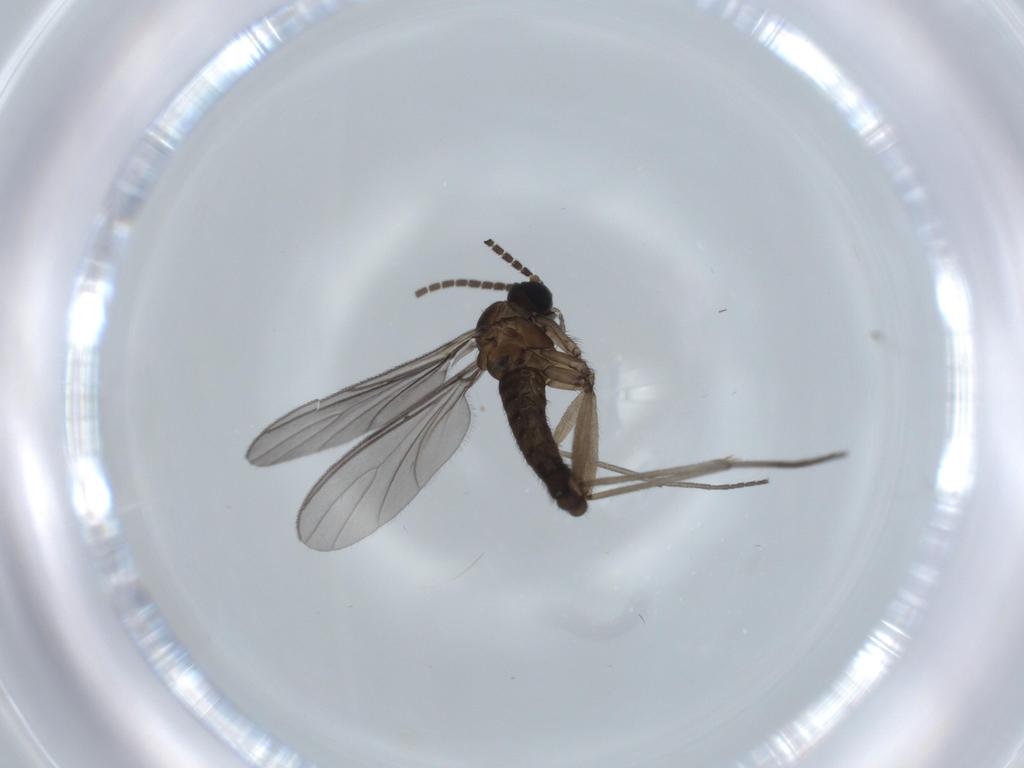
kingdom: Animalia
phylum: Arthropoda
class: Insecta
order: Diptera
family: Sciaridae
